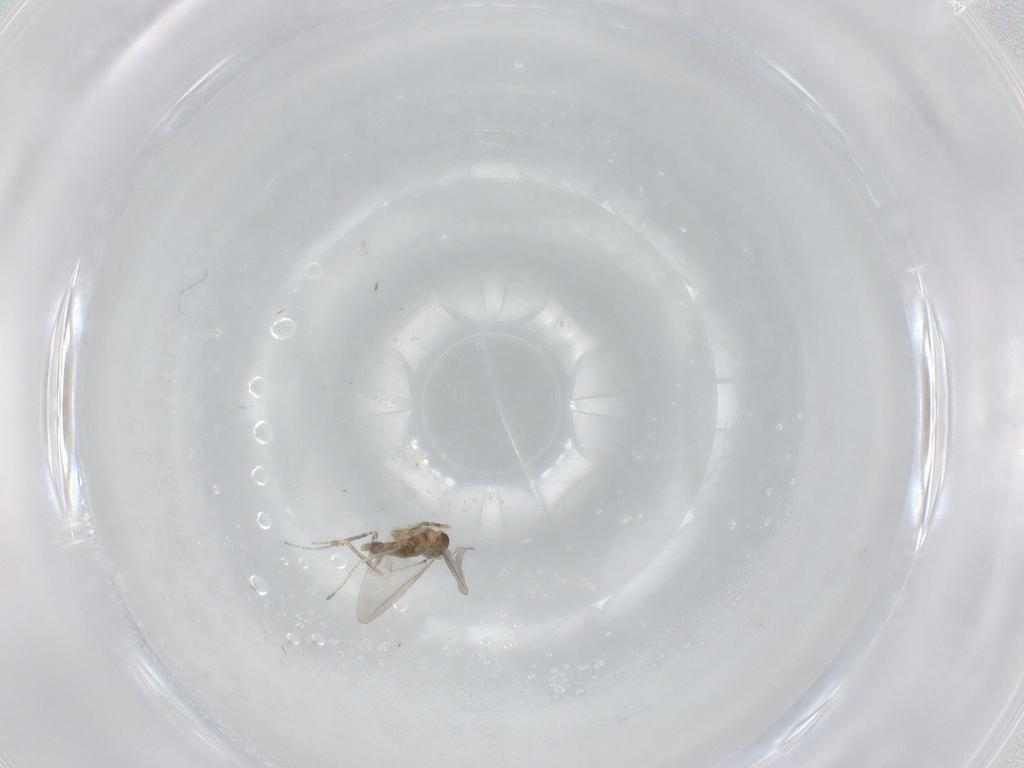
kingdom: Animalia
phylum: Arthropoda
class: Insecta
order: Diptera
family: Cecidomyiidae
